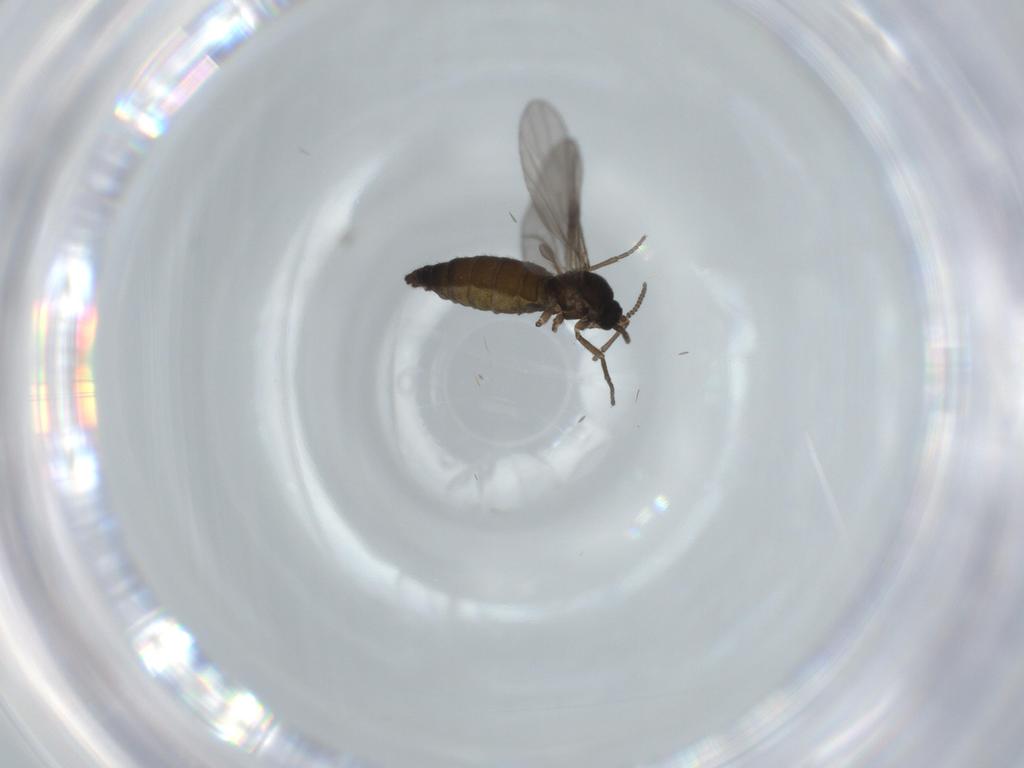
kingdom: Animalia
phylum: Arthropoda
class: Insecta
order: Diptera
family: Sciaridae
